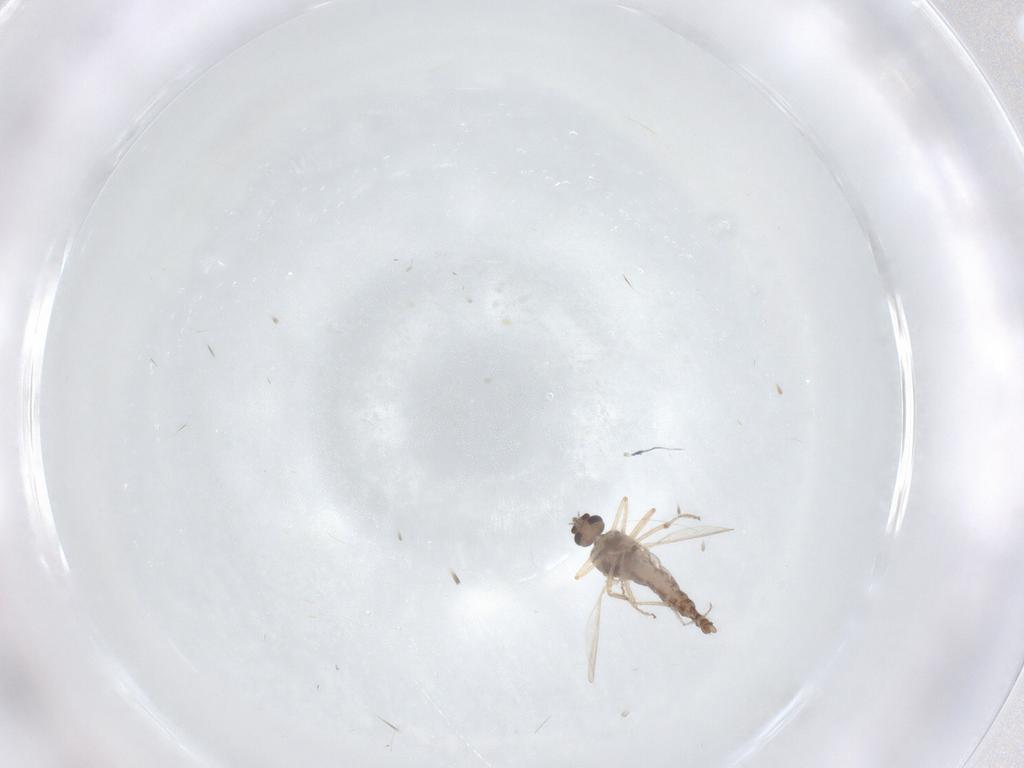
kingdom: Animalia
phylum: Arthropoda
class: Insecta
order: Diptera
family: Ceratopogonidae
